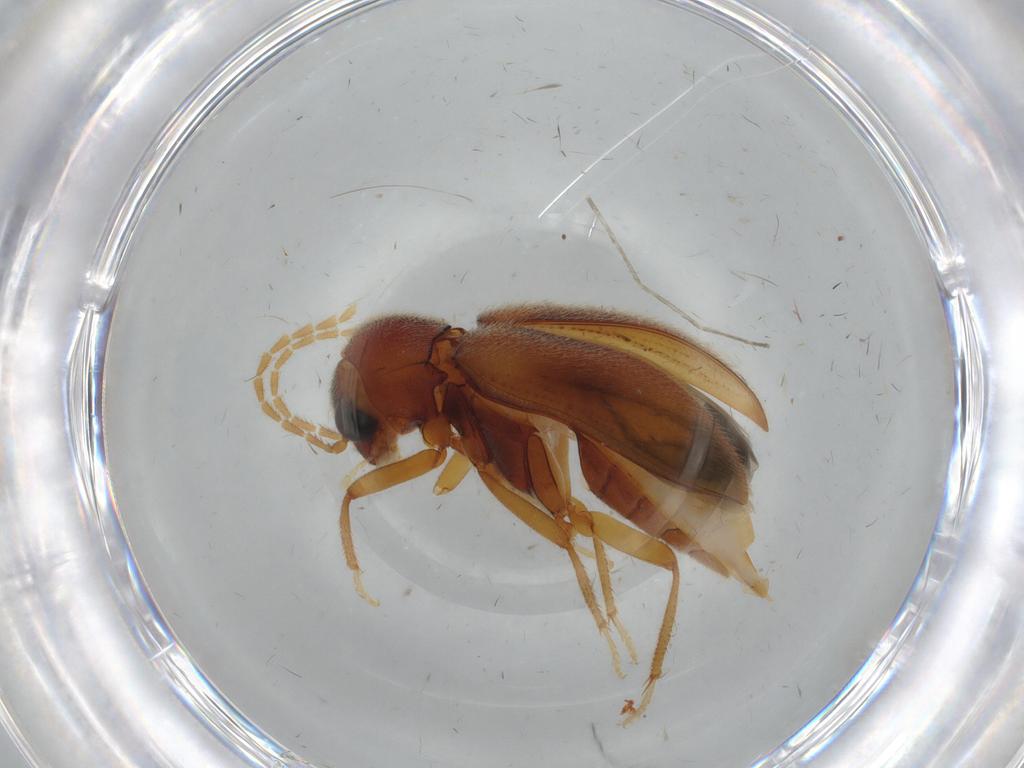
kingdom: Animalia
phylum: Arthropoda
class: Insecta
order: Coleoptera
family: Ptilodactylidae
